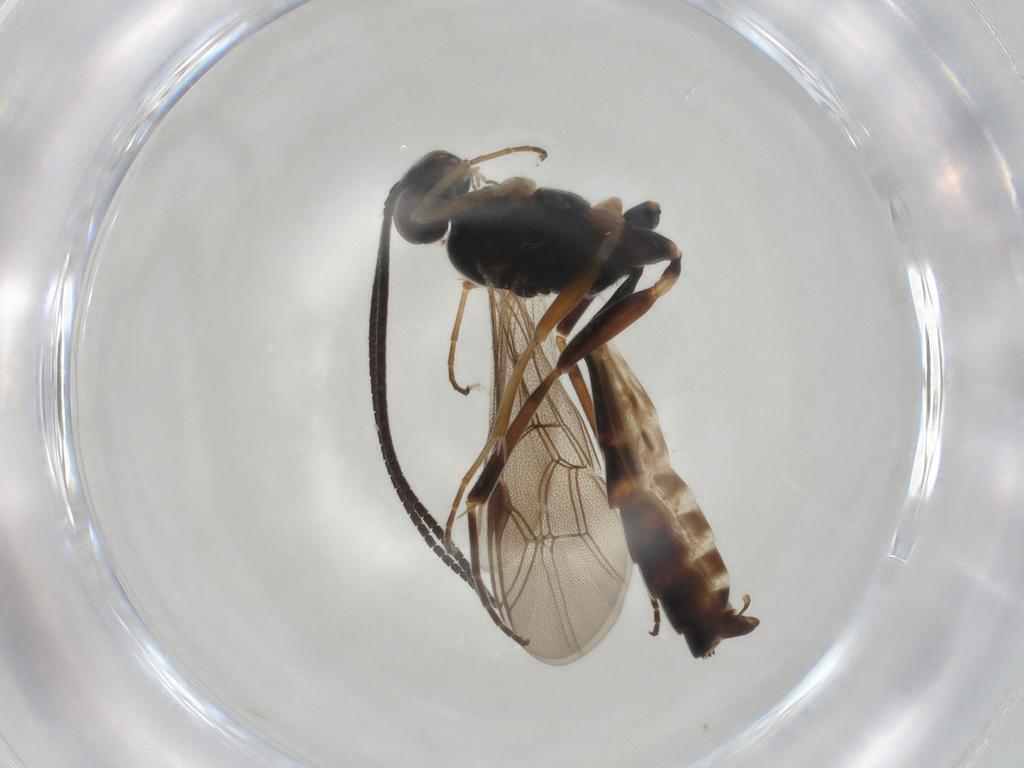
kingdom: Animalia
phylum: Arthropoda
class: Insecta
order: Hymenoptera
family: Ichneumonidae
